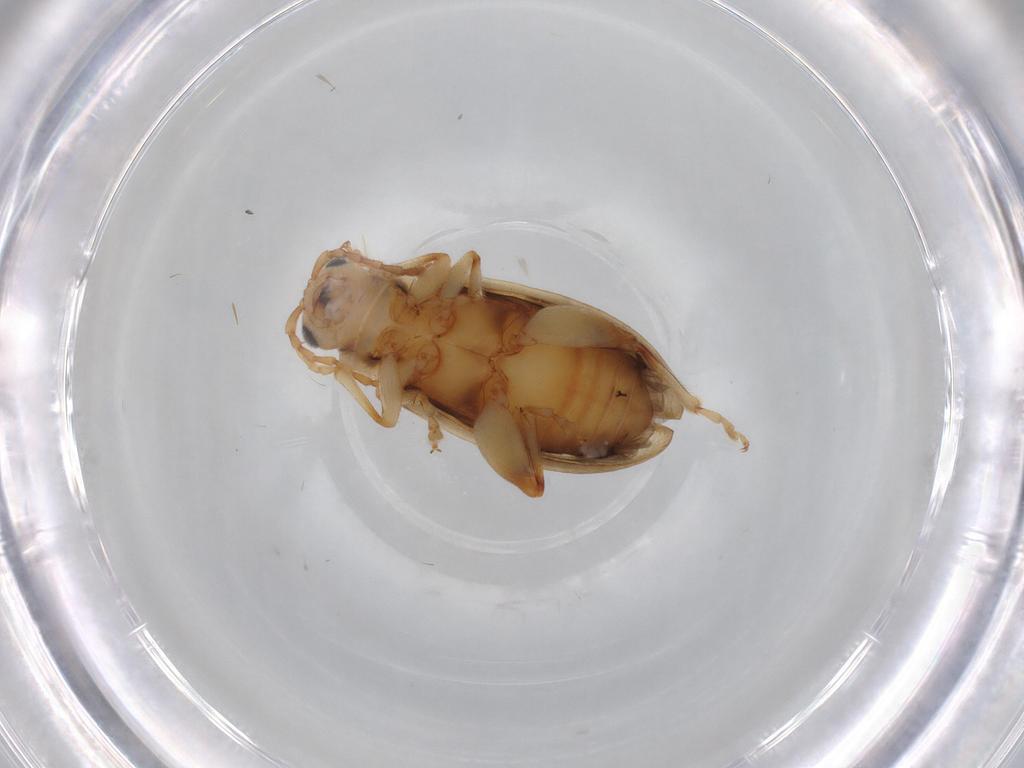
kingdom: Animalia
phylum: Arthropoda
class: Insecta
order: Coleoptera
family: Chrysomelidae
